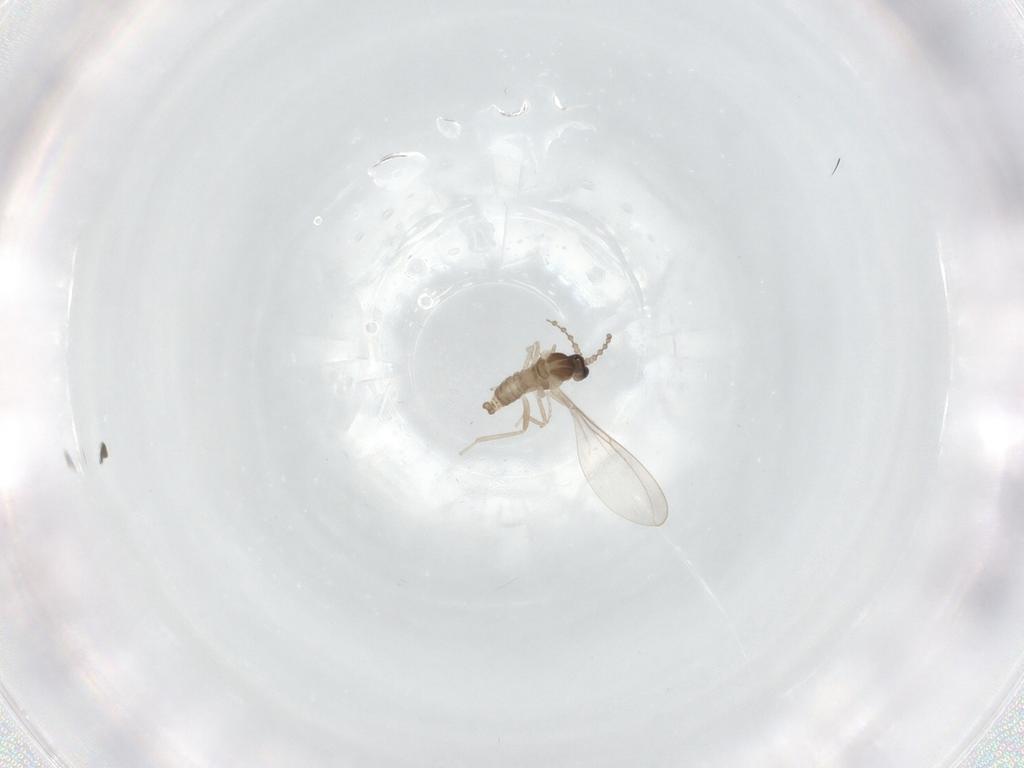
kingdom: Animalia
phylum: Arthropoda
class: Insecta
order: Diptera
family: Cecidomyiidae
